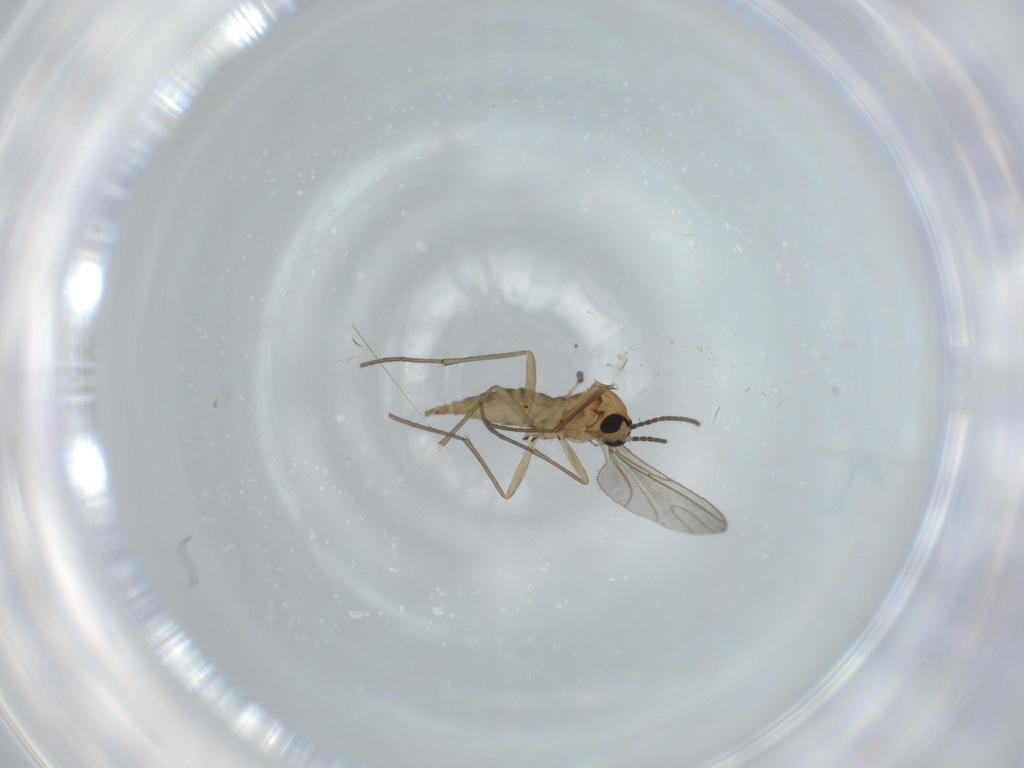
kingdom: Animalia
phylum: Arthropoda
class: Insecta
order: Diptera
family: Sciaridae
